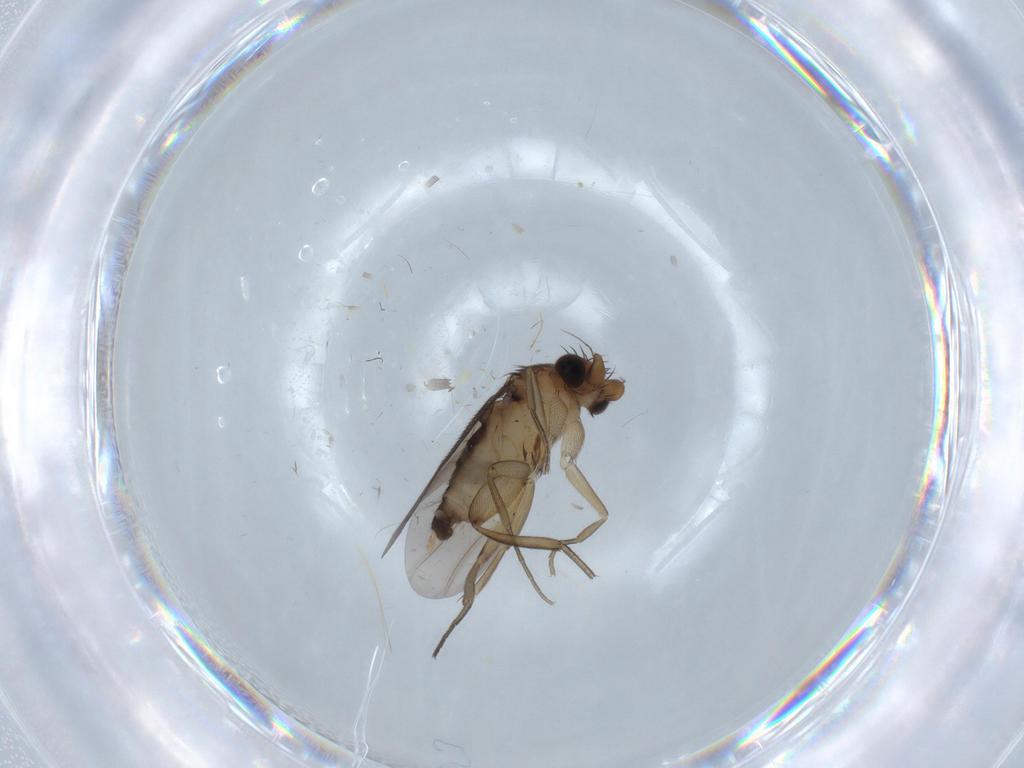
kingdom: Animalia
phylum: Arthropoda
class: Insecta
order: Diptera
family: Phoridae
